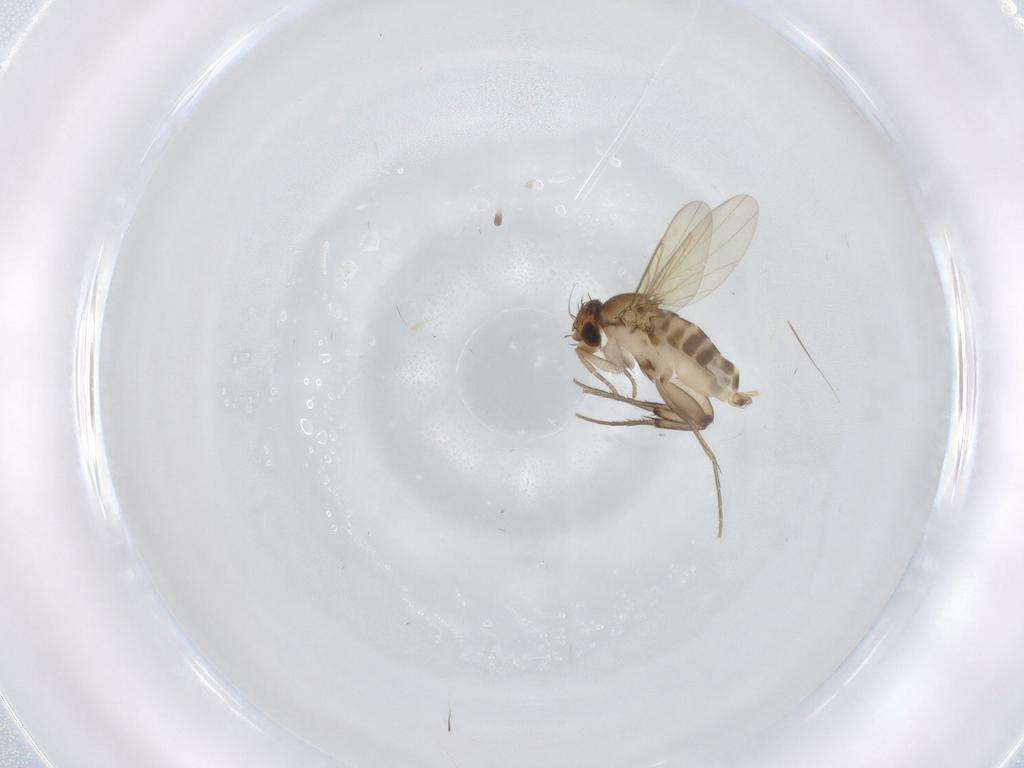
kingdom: Animalia
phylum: Arthropoda
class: Insecta
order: Diptera
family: Phoridae
